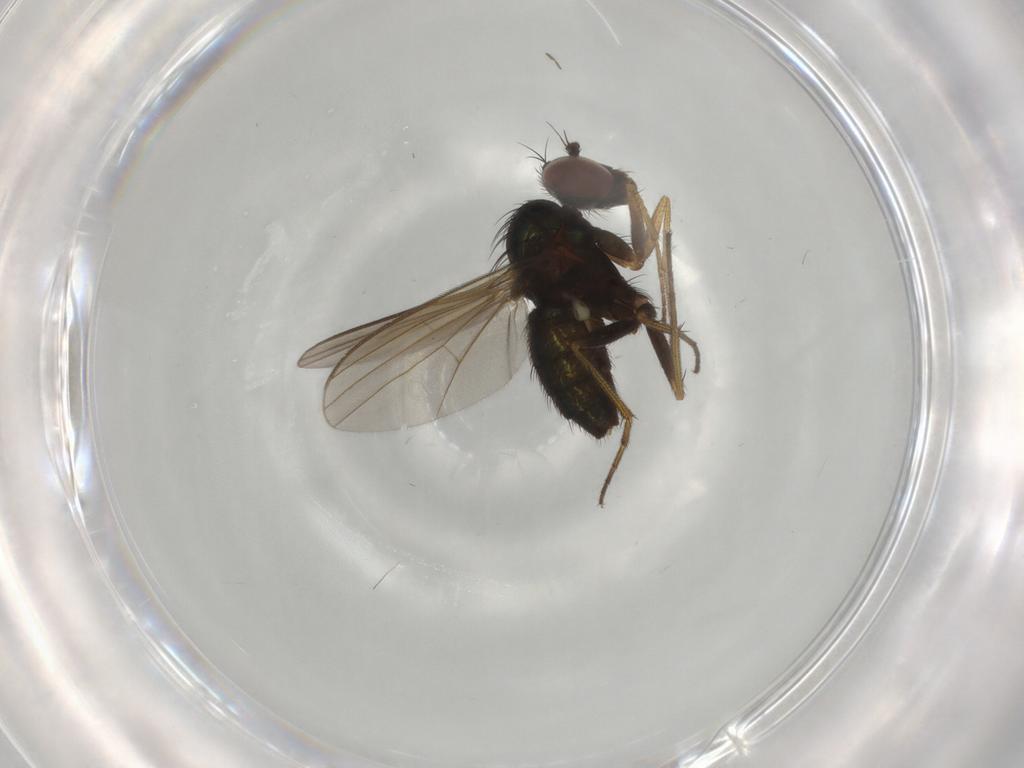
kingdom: Animalia
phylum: Arthropoda
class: Insecta
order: Diptera
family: Dolichopodidae
